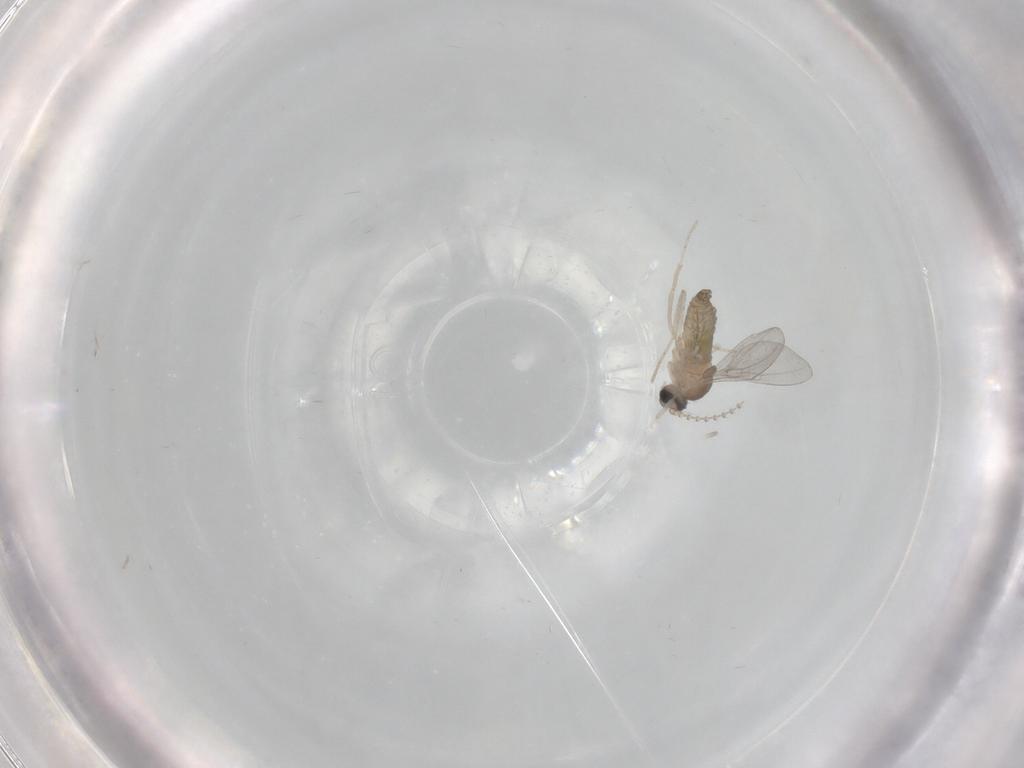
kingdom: Animalia
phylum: Arthropoda
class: Insecta
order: Diptera
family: Cecidomyiidae
